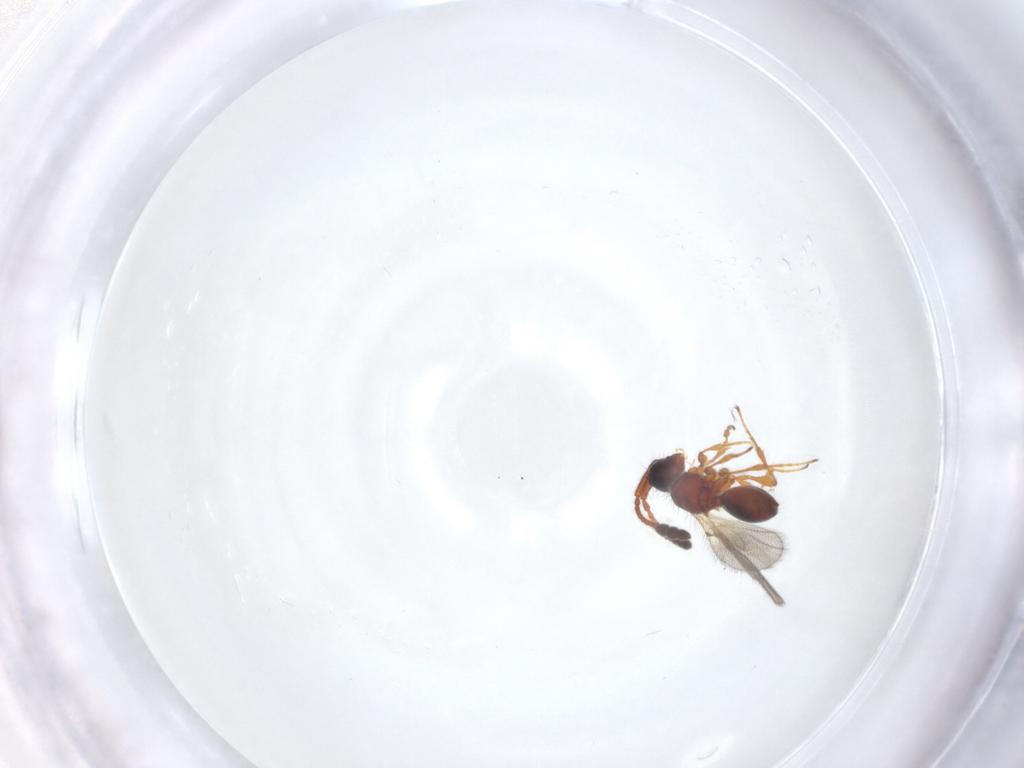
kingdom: Animalia
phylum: Arthropoda
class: Insecta
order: Hymenoptera
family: Diapriidae
